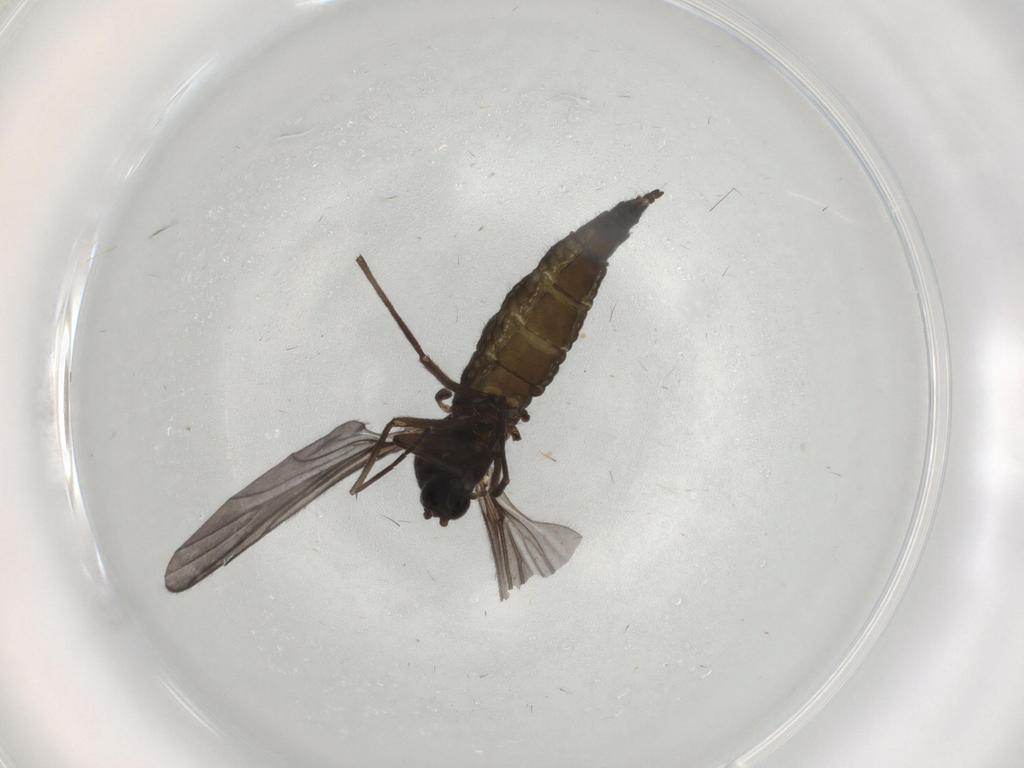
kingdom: Animalia
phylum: Arthropoda
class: Insecta
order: Diptera
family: Sciaridae
